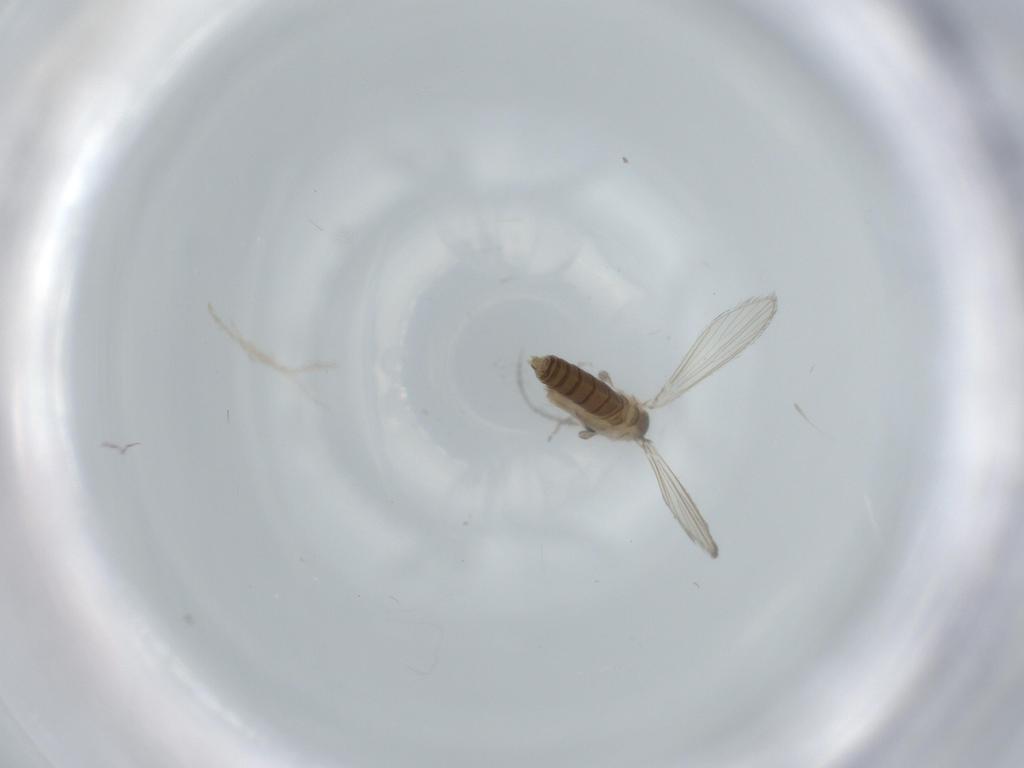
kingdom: Animalia
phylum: Arthropoda
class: Insecta
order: Diptera
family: Psychodidae
